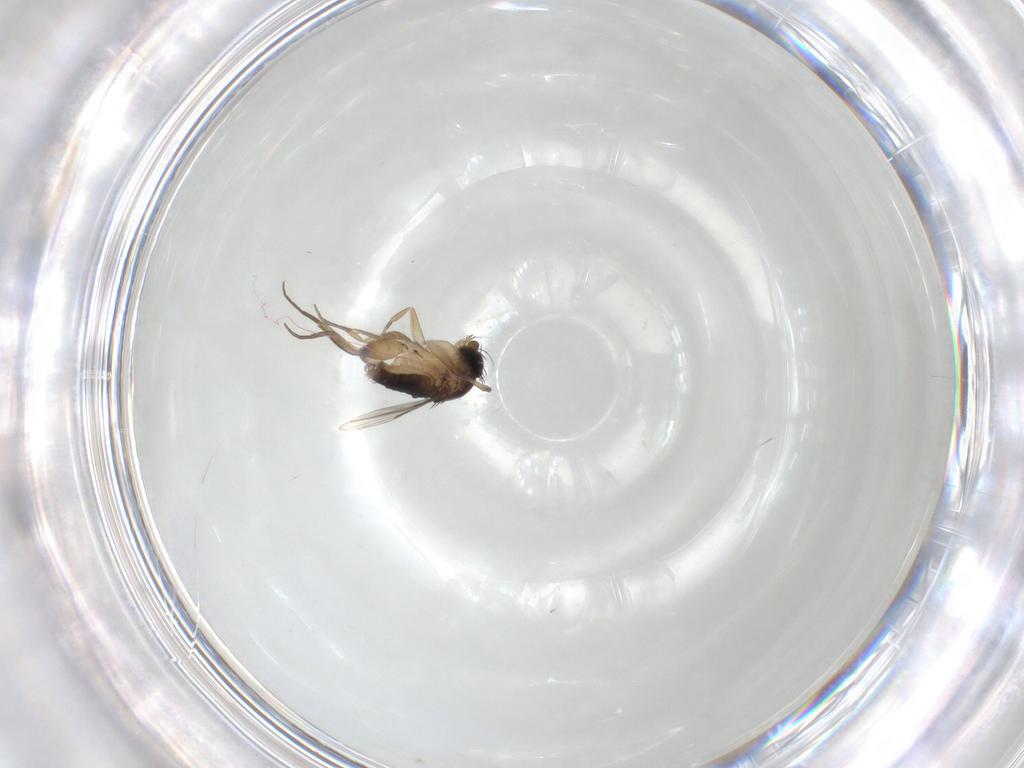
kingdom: Animalia
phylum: Arthropoda
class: Insecta
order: Diptera
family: Phoridae
